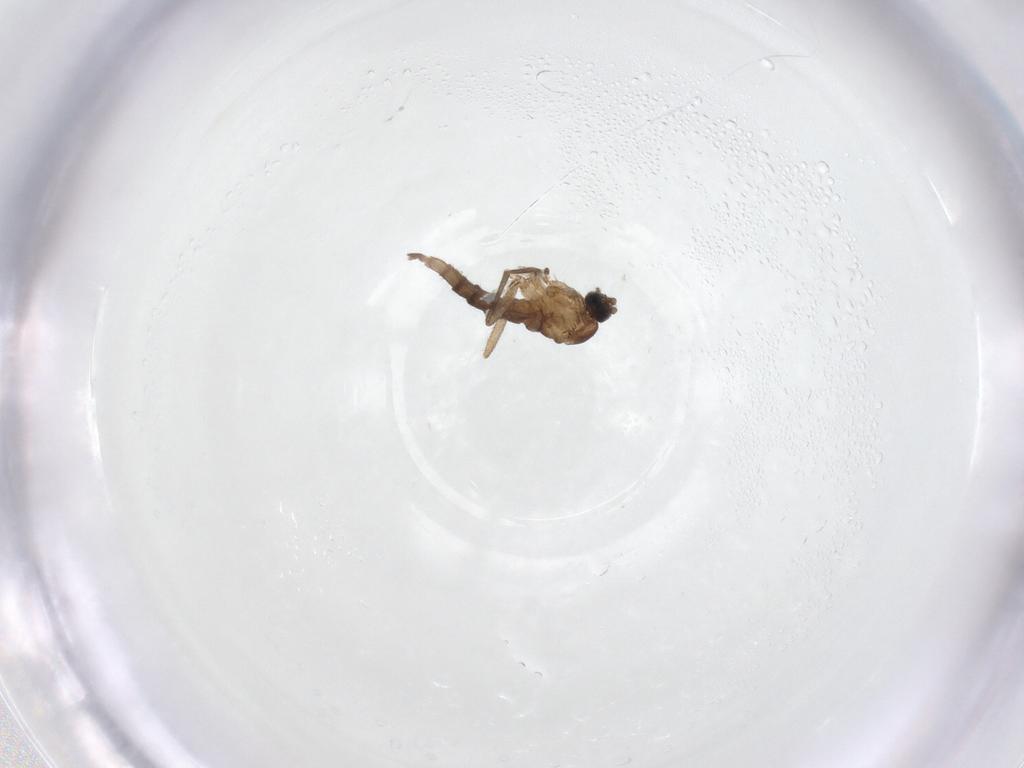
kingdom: Animalia
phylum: Arthropoda
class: Insecta
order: Diptera
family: Sciaridae
